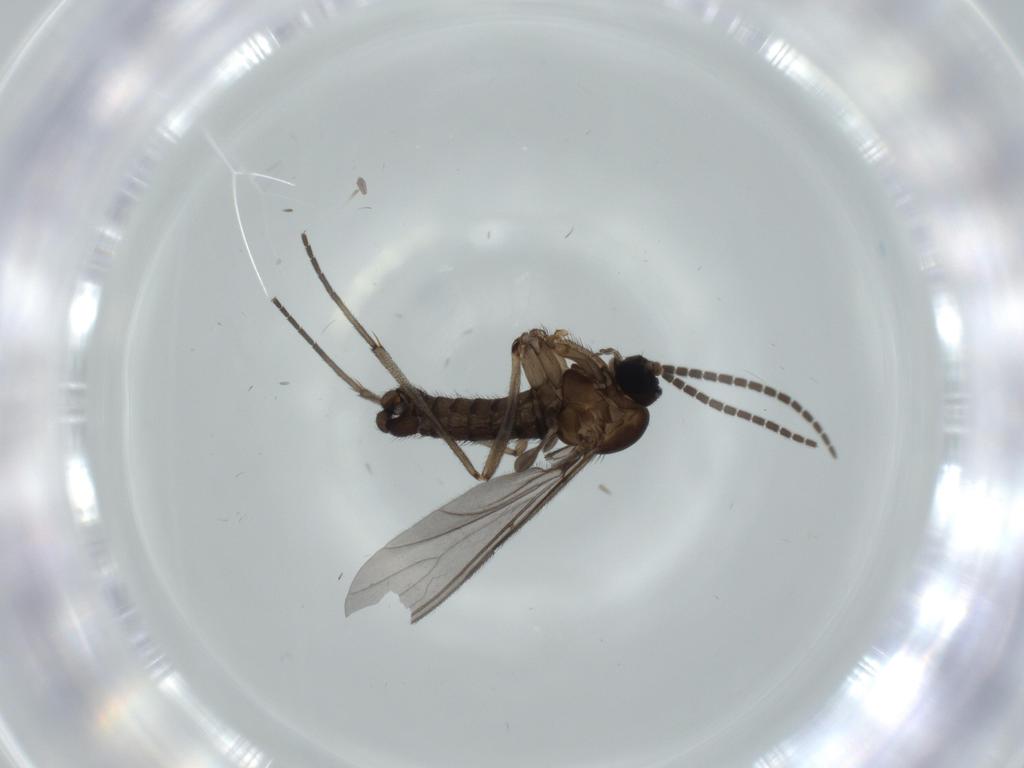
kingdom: Animalia
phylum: Arthropoda
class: Insecta
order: Diptera
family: Sciaridae
